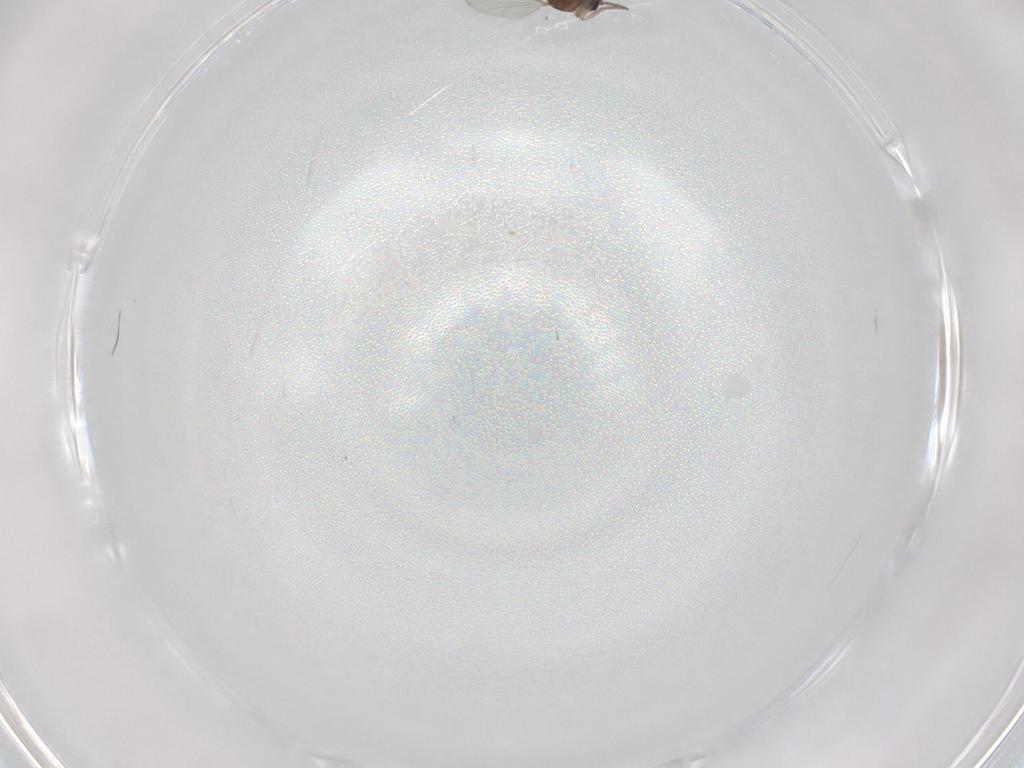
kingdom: Animalia
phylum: Arthropoda
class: Insecta
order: Diptera
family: Ceratopogonidae
